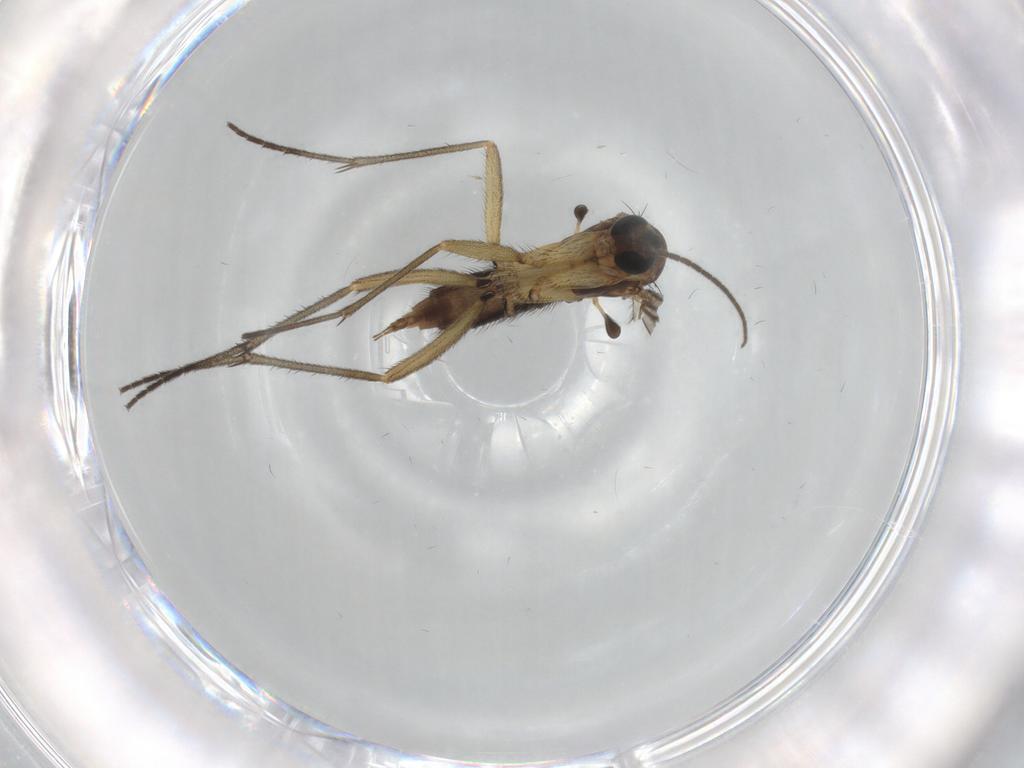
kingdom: Animalia
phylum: Arthropoda
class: Insecta
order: Diptera
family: Sciaridae
